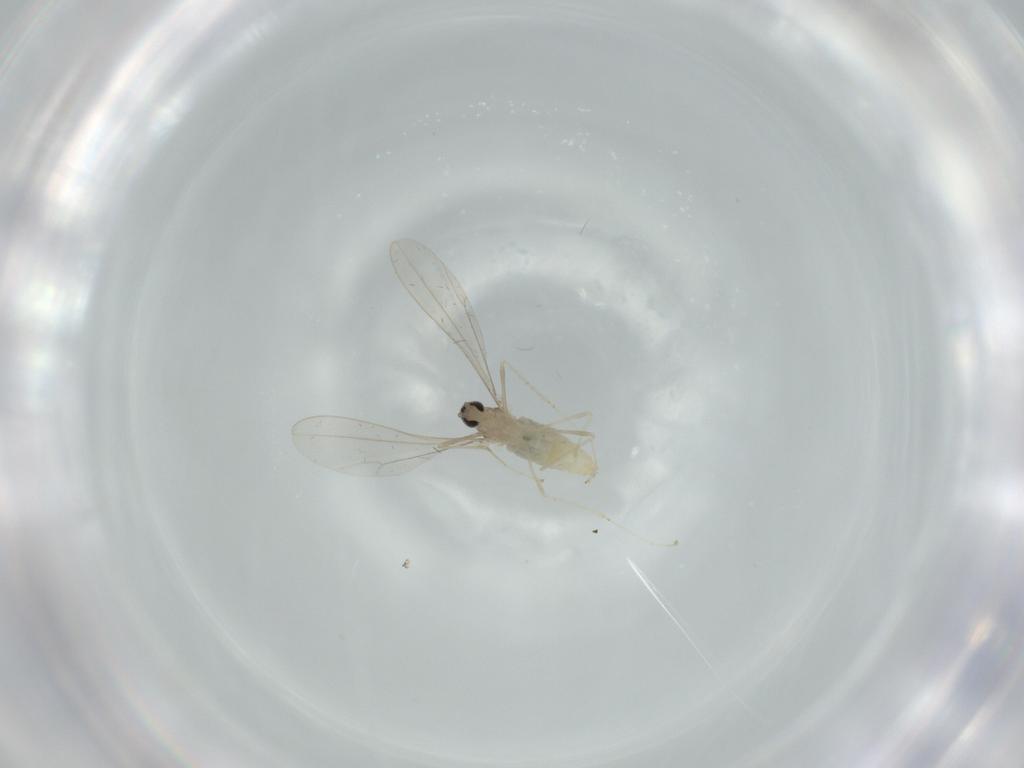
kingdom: Animalia
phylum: Arthropoda
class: Insecta
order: Diptera
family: Cecidomyiidae
